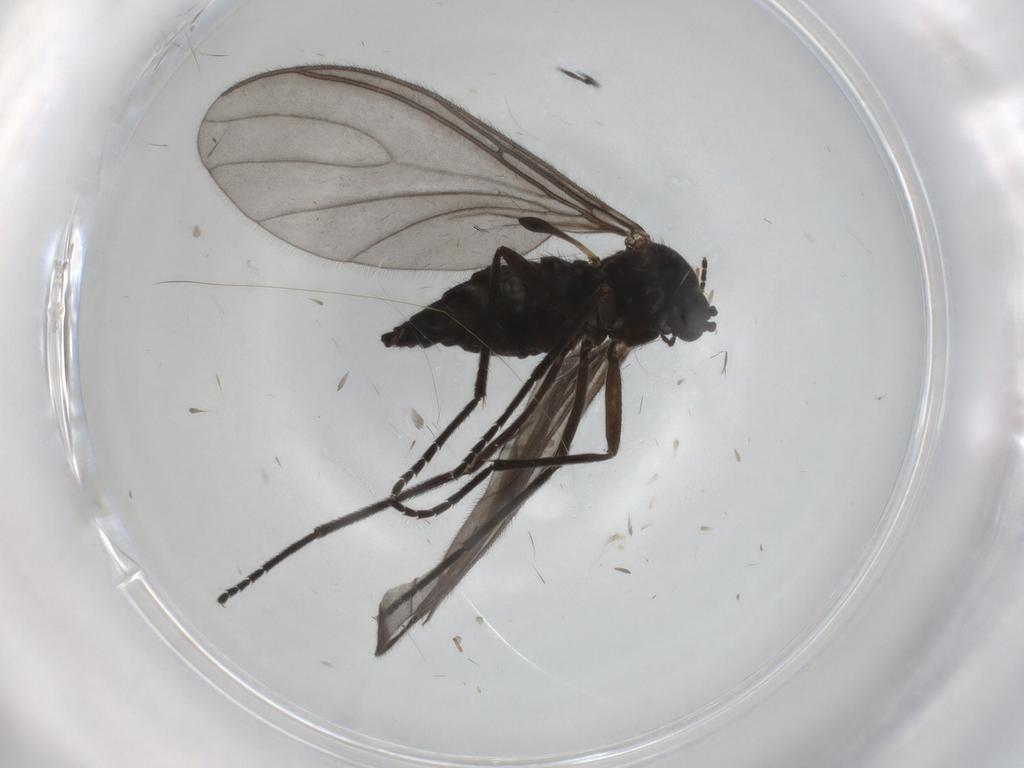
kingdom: Animalia
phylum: Arthropoda
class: Insecta
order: Diptera
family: Sciaridae
